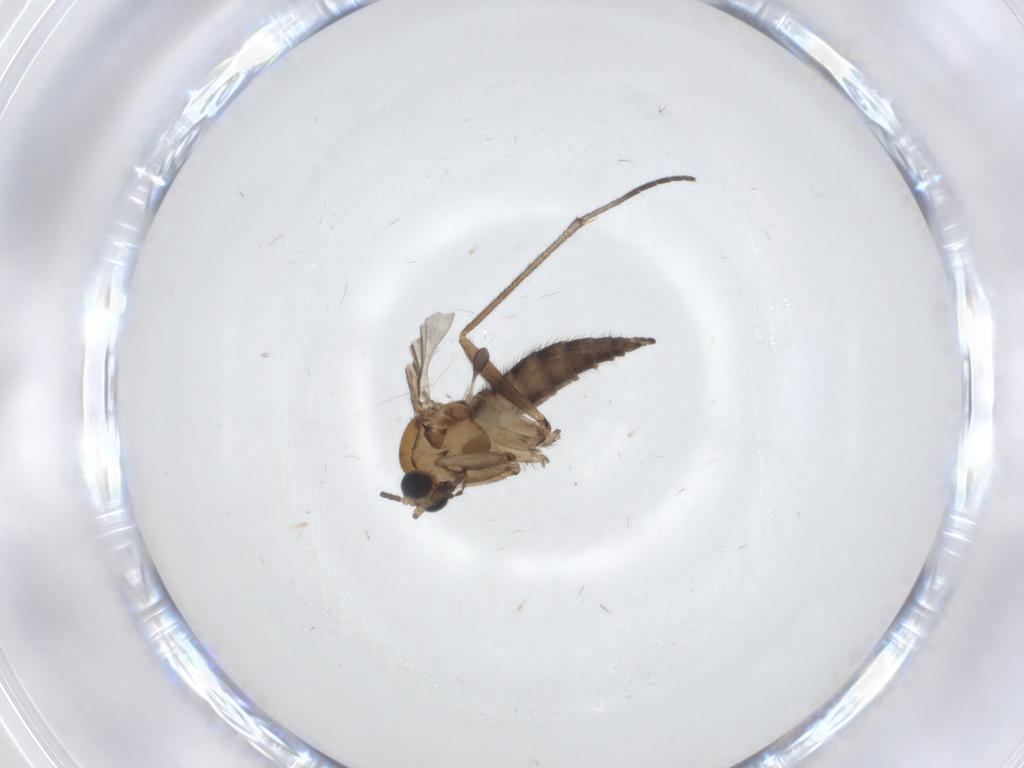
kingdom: Animalia
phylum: Arthropoda
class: Insecta
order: Diptera
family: Sciaridae
